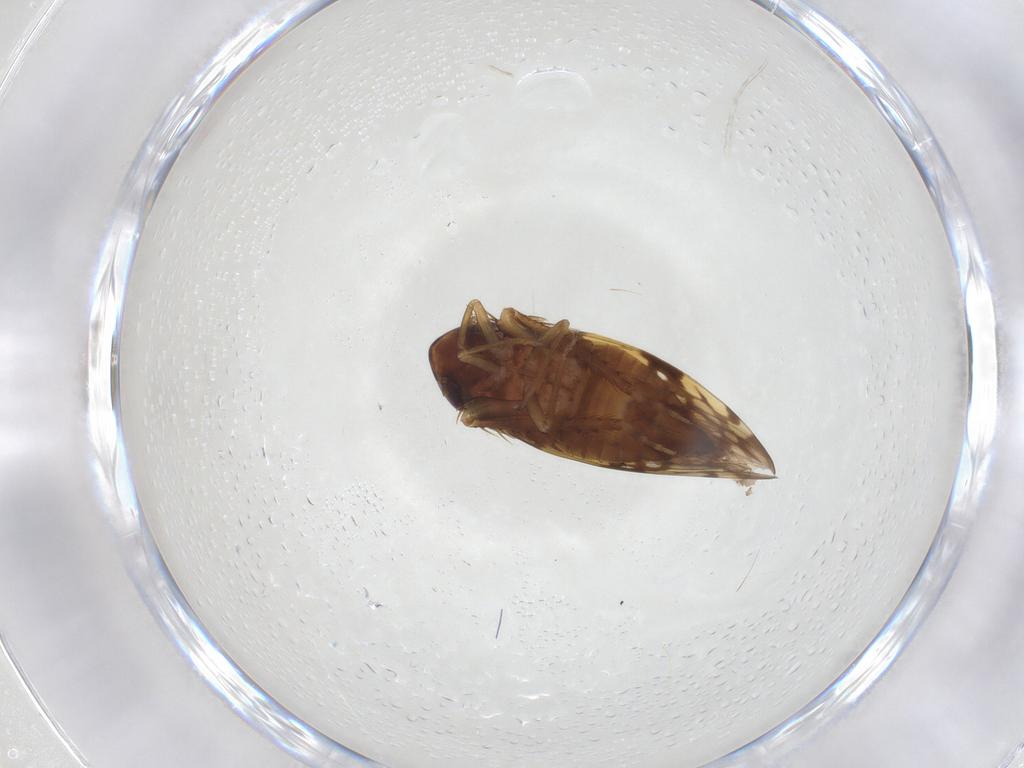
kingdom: Animalia
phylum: Arthropoda
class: Insecta
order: Hemiptera
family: Cicadellidae
